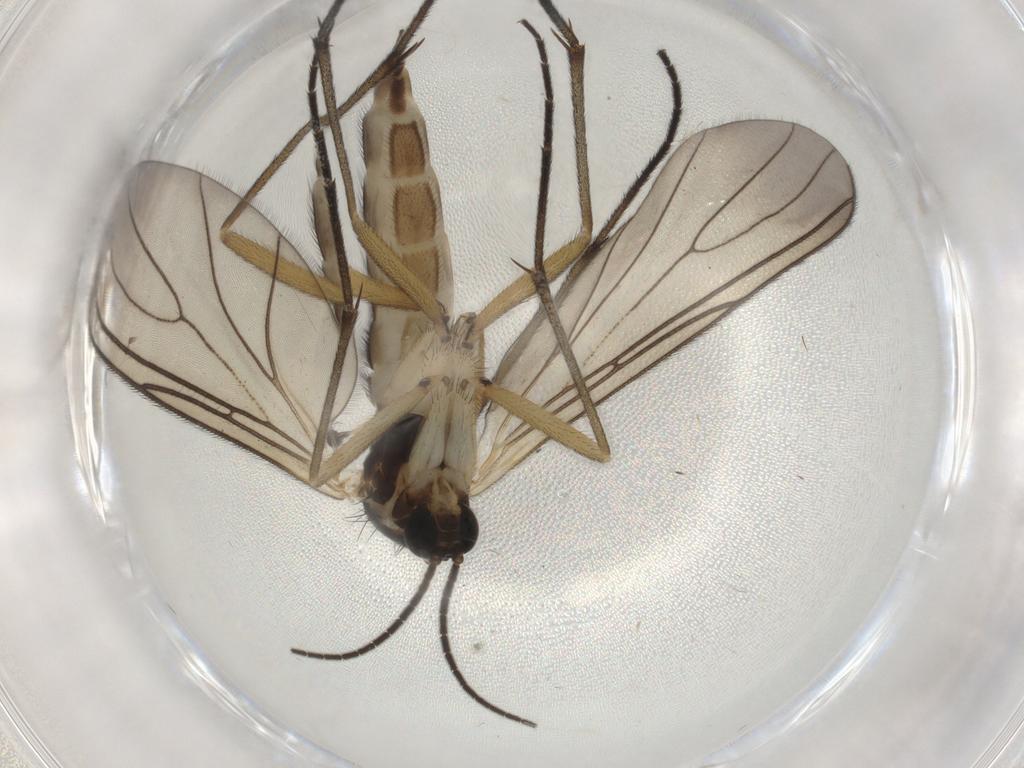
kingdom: Animalia
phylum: Arthropoda
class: Insecta
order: Diptera
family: Sciaridae
